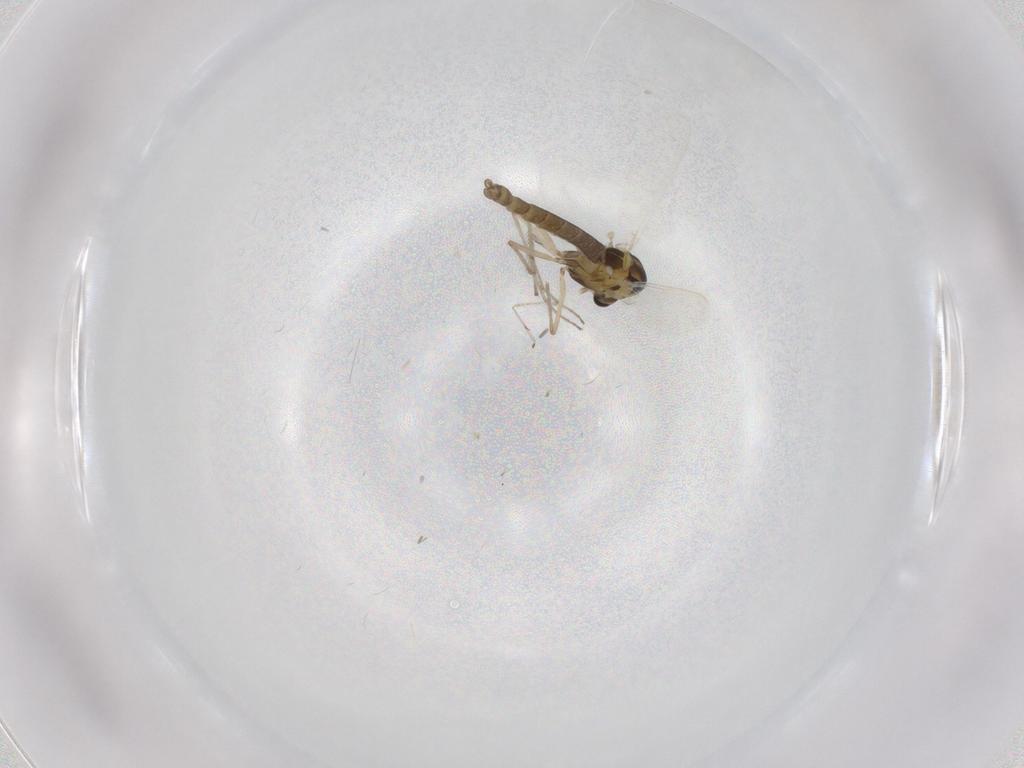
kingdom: Animalia
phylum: Arthropoda
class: Insecta
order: Diptera
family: Chironomidae
